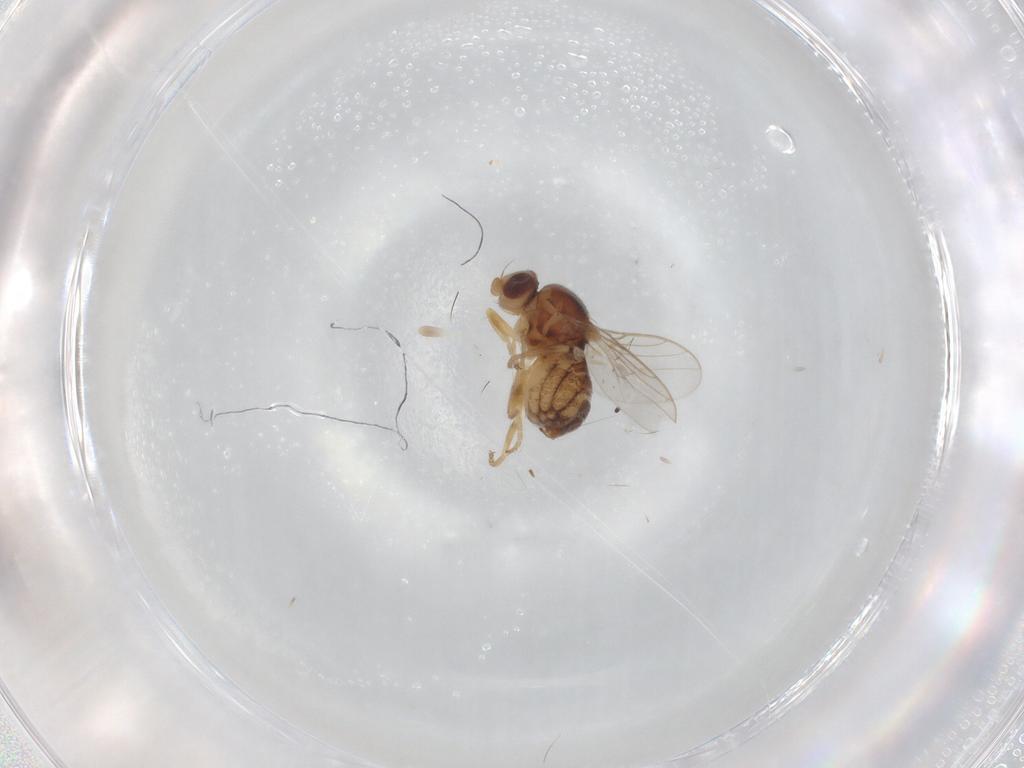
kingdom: Animalia
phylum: Arthropoda
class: Insecta
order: Diptera
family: Chloropidae
